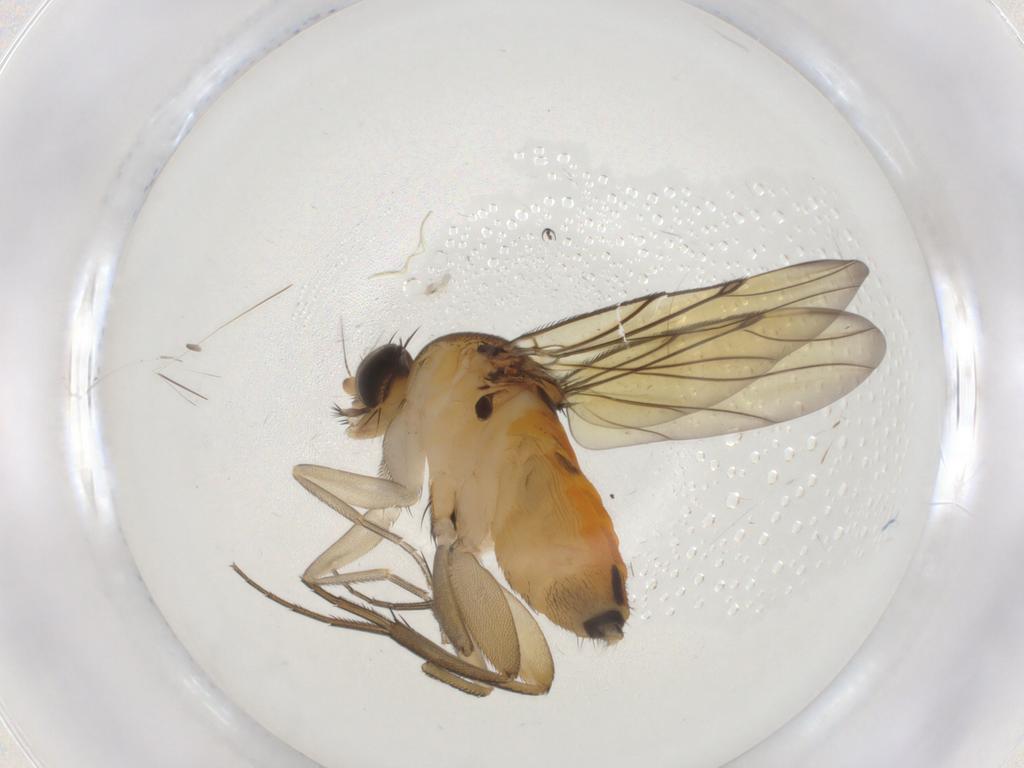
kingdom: Animalia
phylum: Arthropoda
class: Insecta
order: Diptera
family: Phoridae
